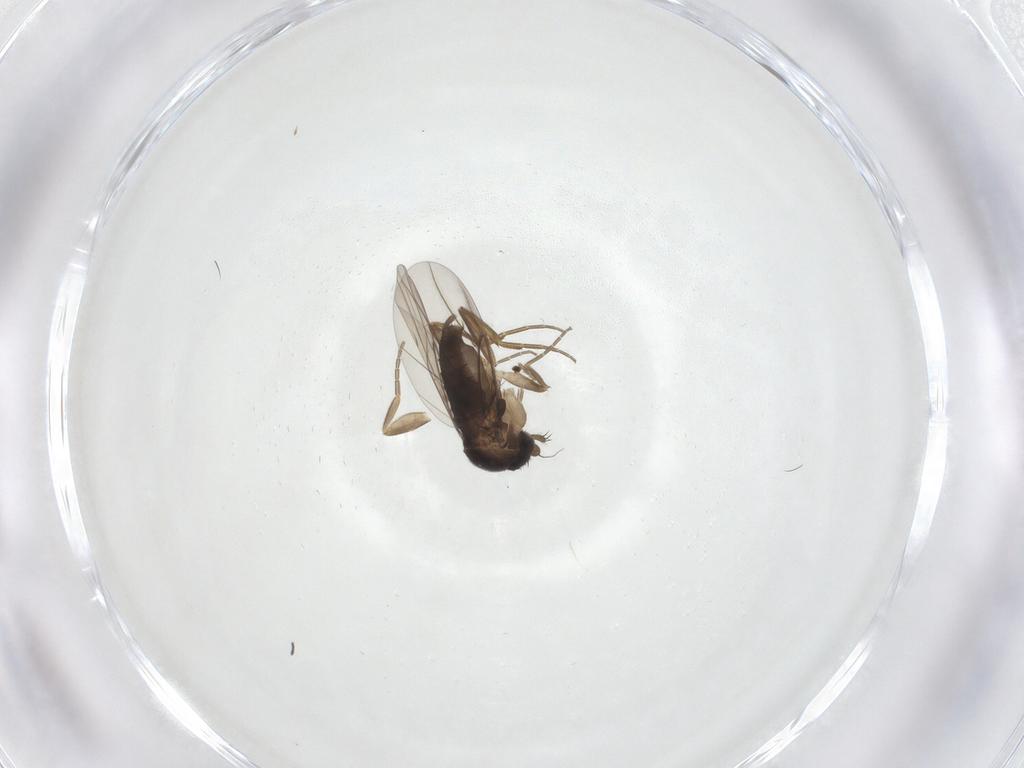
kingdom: Animalia
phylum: Arthropoda
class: Insecta
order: Diptera
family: Phoridae
